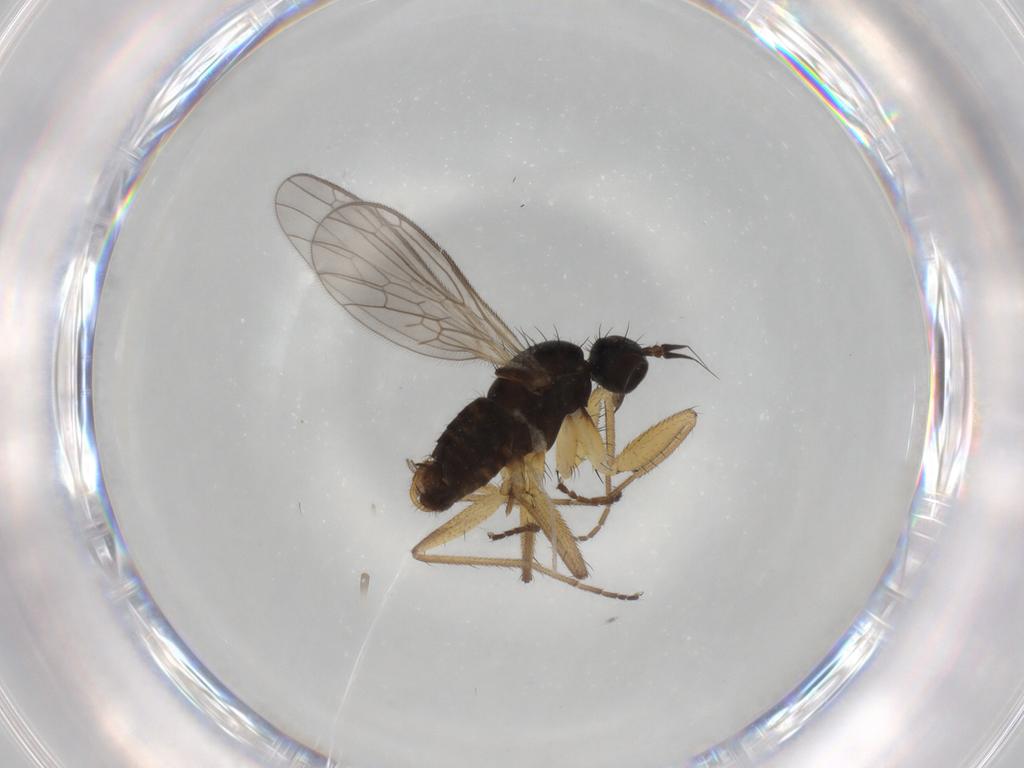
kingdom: Animalia
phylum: Arthropoda
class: Insecta
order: Diptera
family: Empididae
